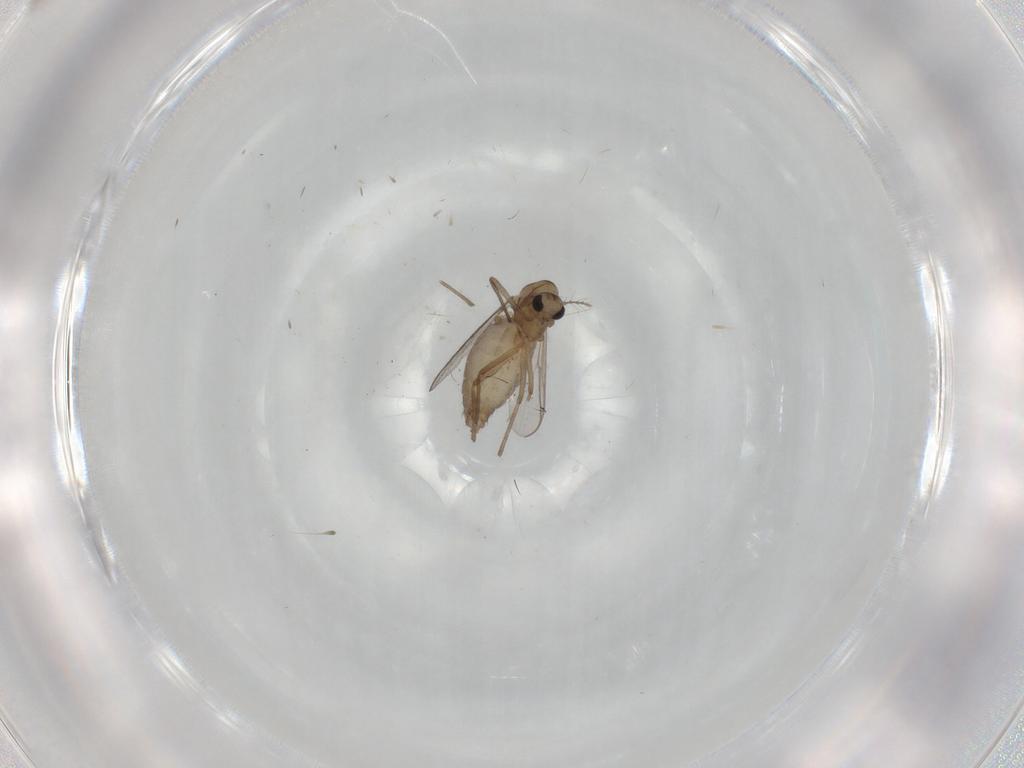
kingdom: Animalia
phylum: Arthropoda
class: Insecta
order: Diptera
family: Chironomidae
